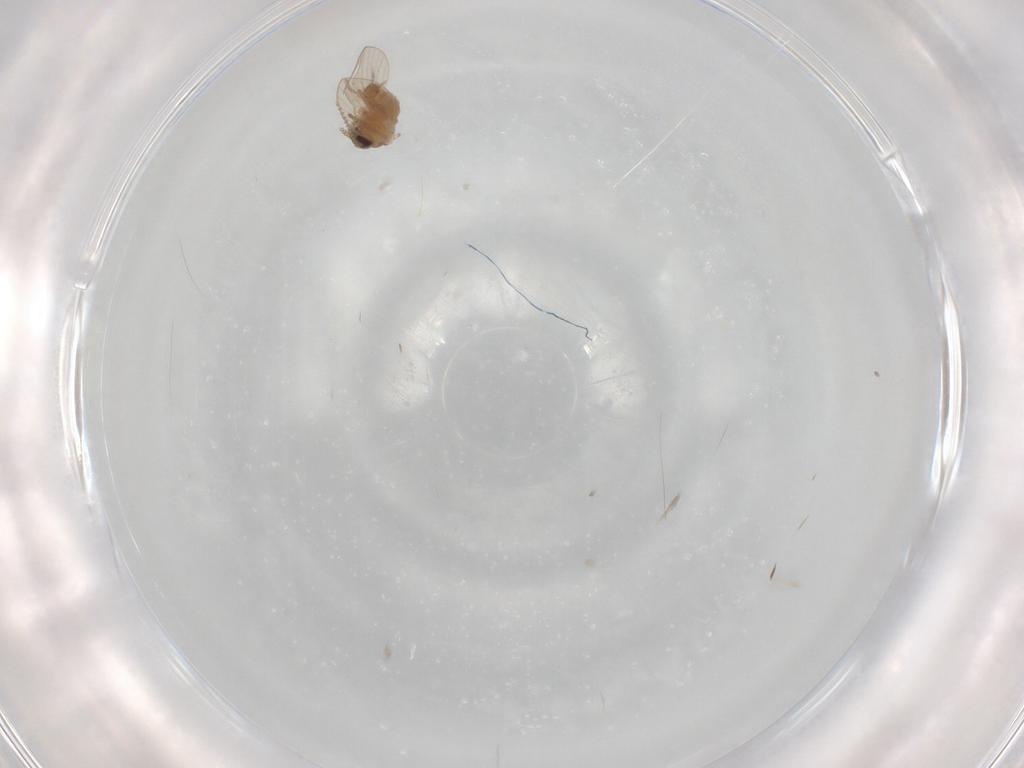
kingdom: Animalia
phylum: Arthropoda
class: Insecta
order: Diptera
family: Psychodidae
